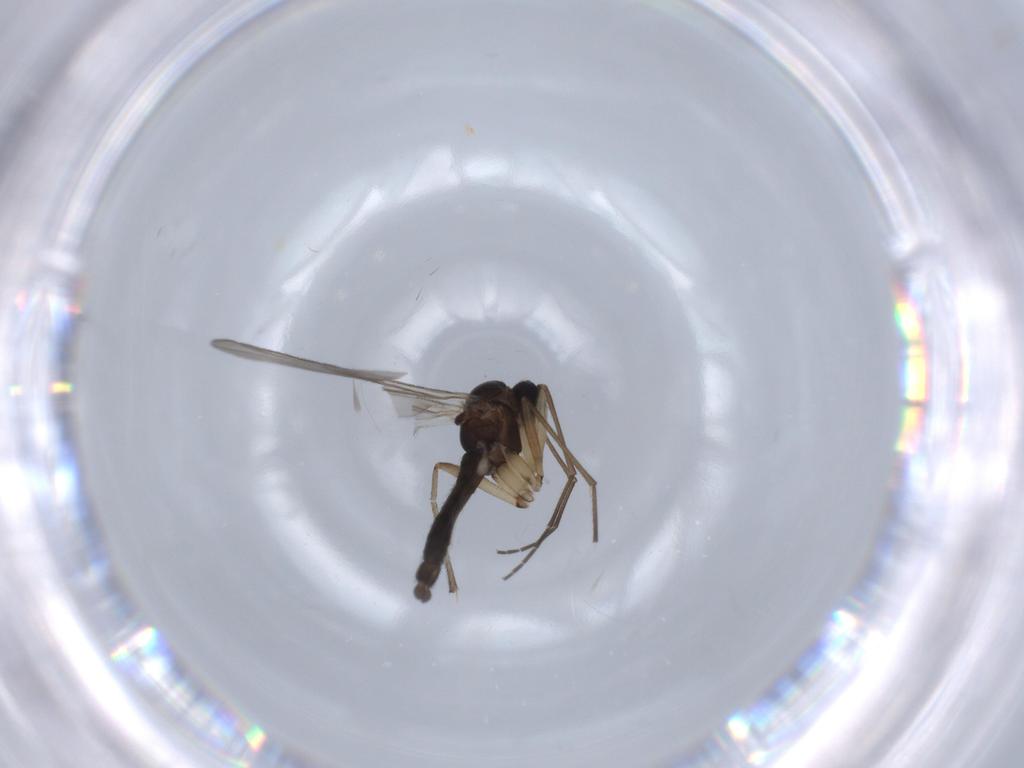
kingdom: Animalia
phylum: Arthropoda
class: Insecta
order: Diptera
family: Sciaridae
